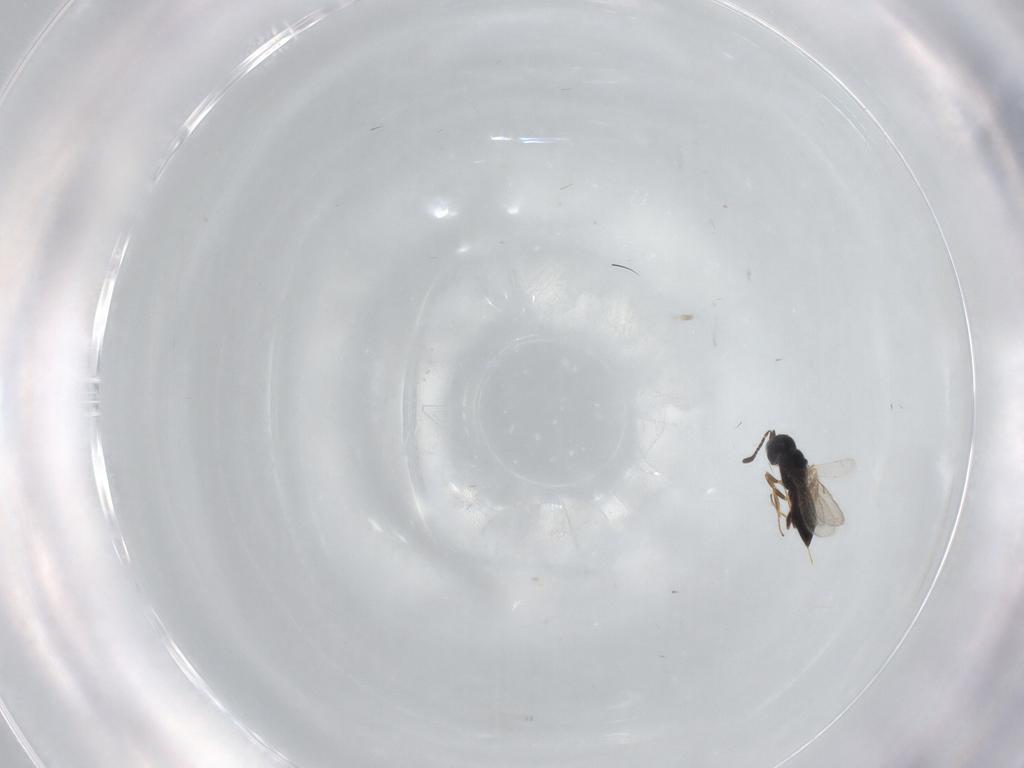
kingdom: Animalia
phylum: Arthropoda
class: Insecta
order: Hymenoptera
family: Scelionidae
